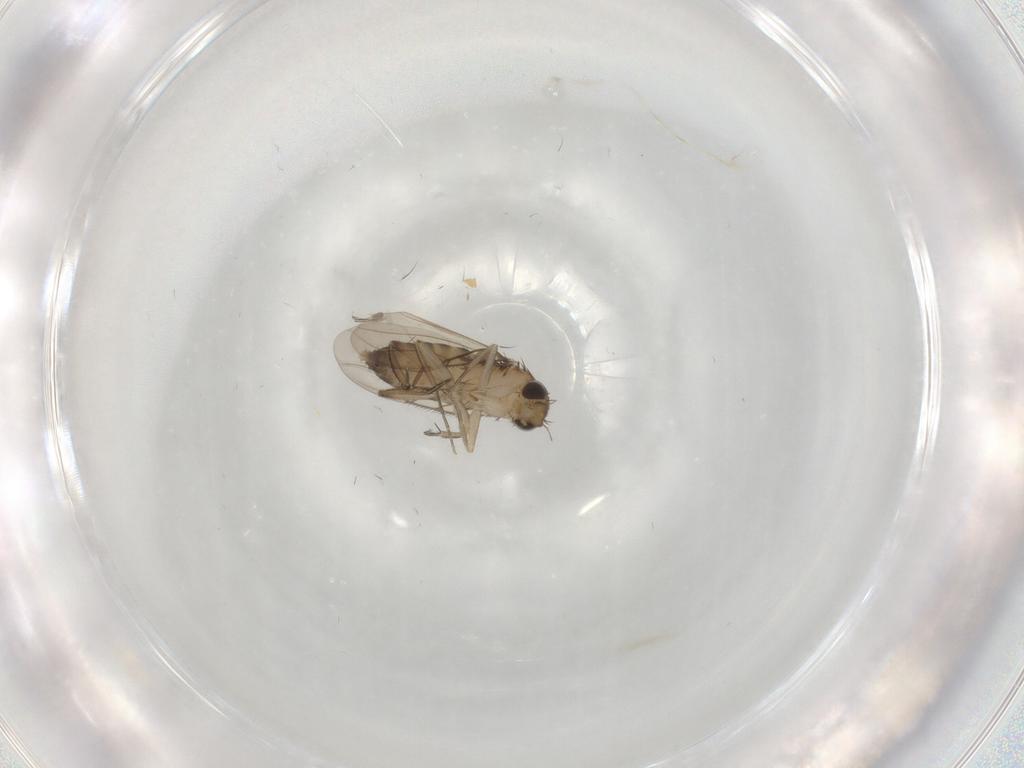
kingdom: Animalia
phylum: Arthropoda
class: Insecta
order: Diptera
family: Phoridae
